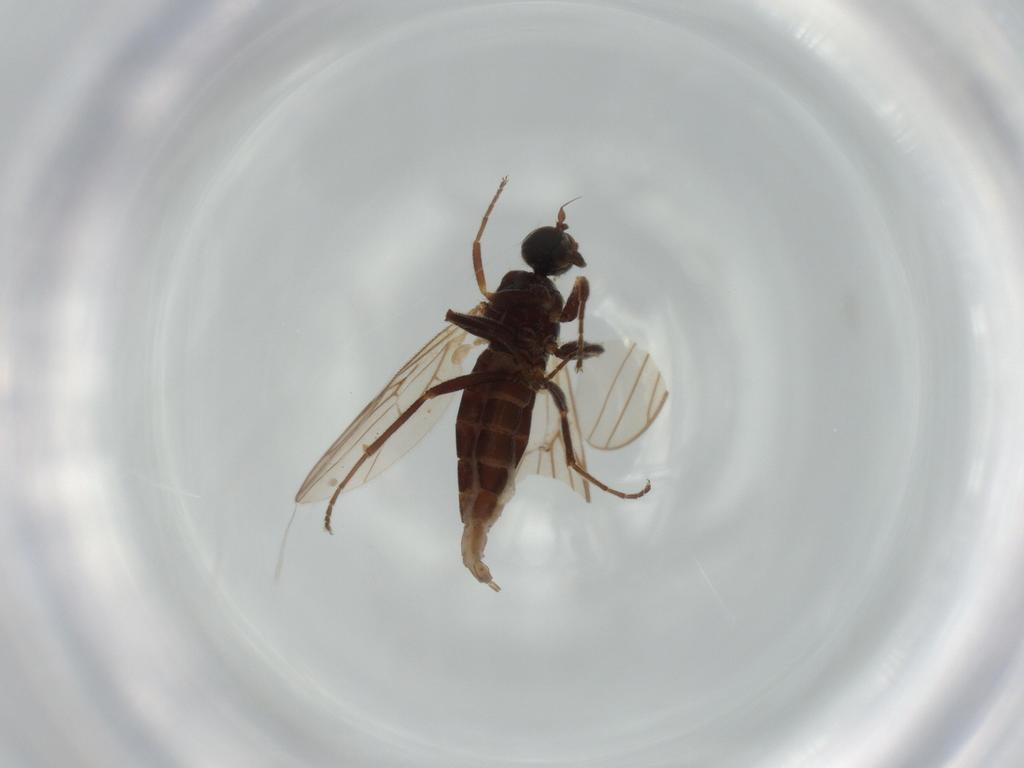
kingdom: Animalia
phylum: Arthropoda
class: Insecta
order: Diptera
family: Hybotidae
